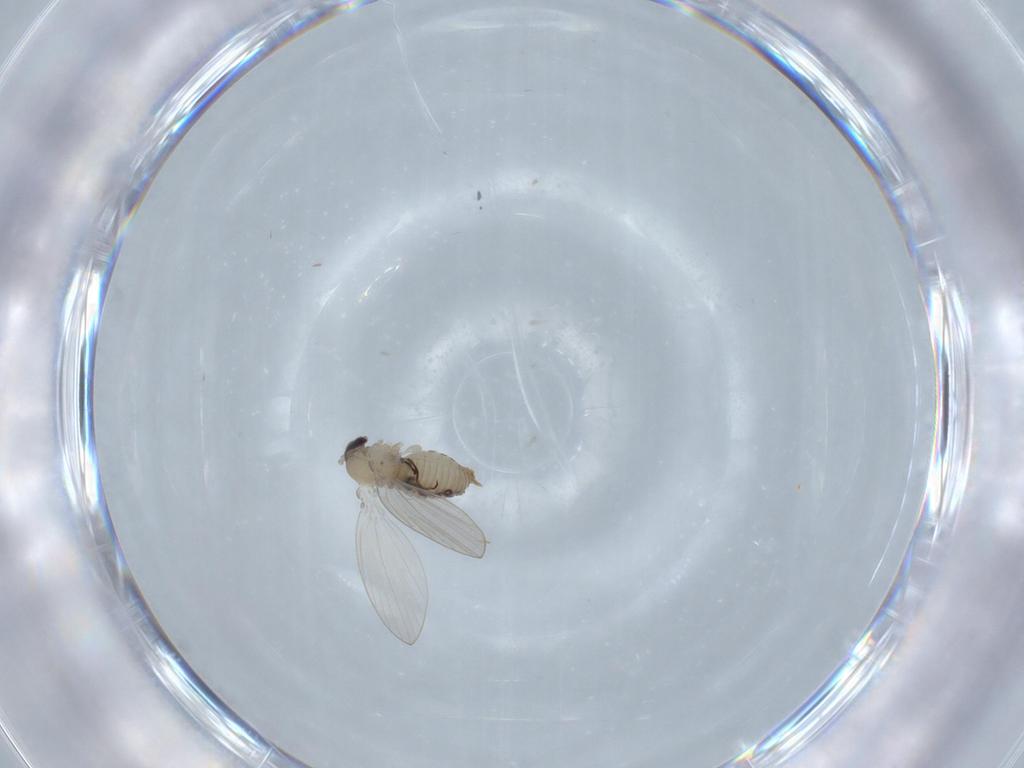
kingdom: Animalia
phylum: Arthropoda
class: Insecta
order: Diptera
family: Psychodidae
